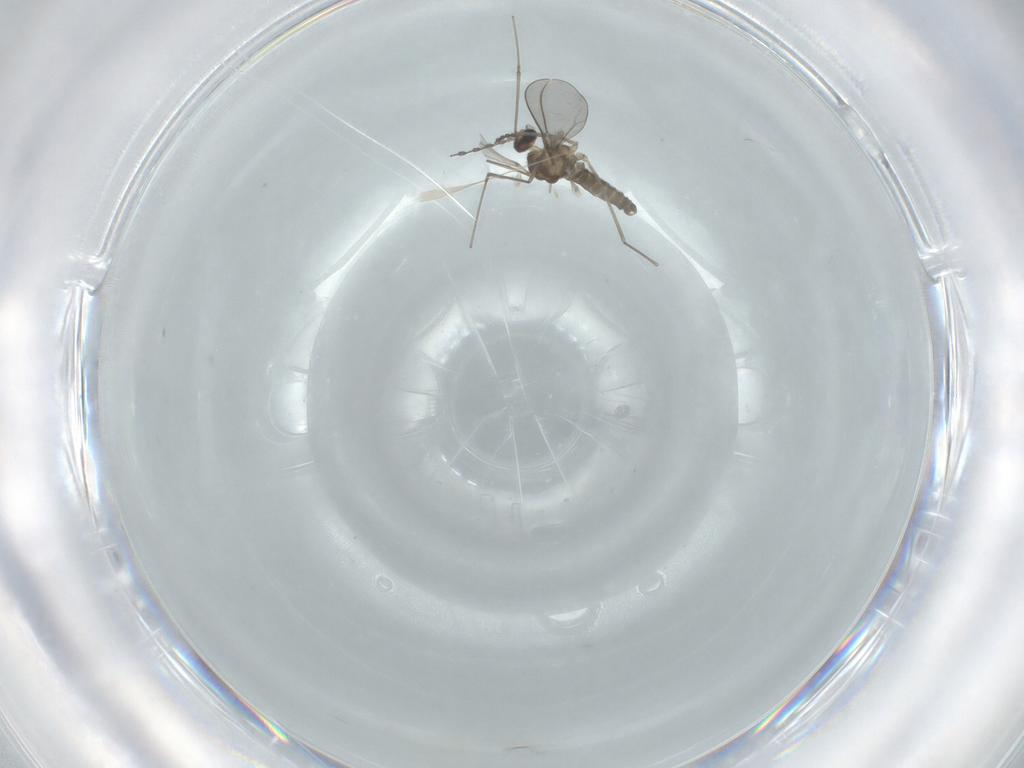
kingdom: Animalia
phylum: Arthropoda
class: Insecta
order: Diptera
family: Cecidomyiidae
